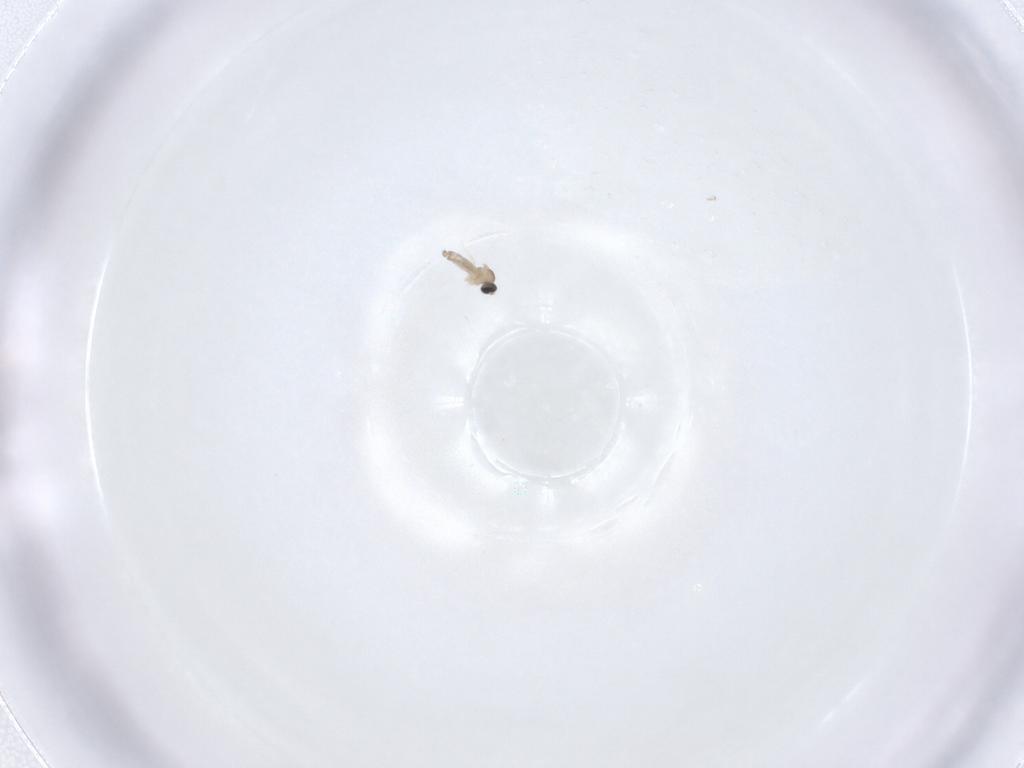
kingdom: Animalia
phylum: Arthropoda
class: Insecta
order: Diptera
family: Cecidomyiidae
